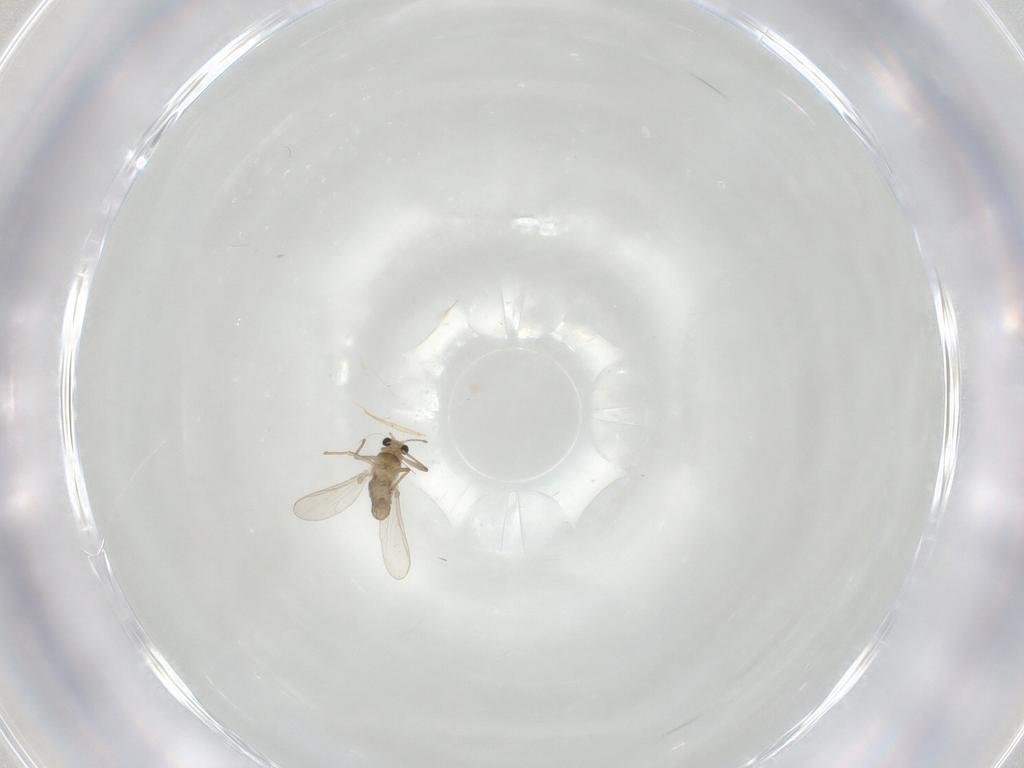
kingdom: Animalia
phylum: Arthropoda
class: Insecta
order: Diptera
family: Chironomidae
